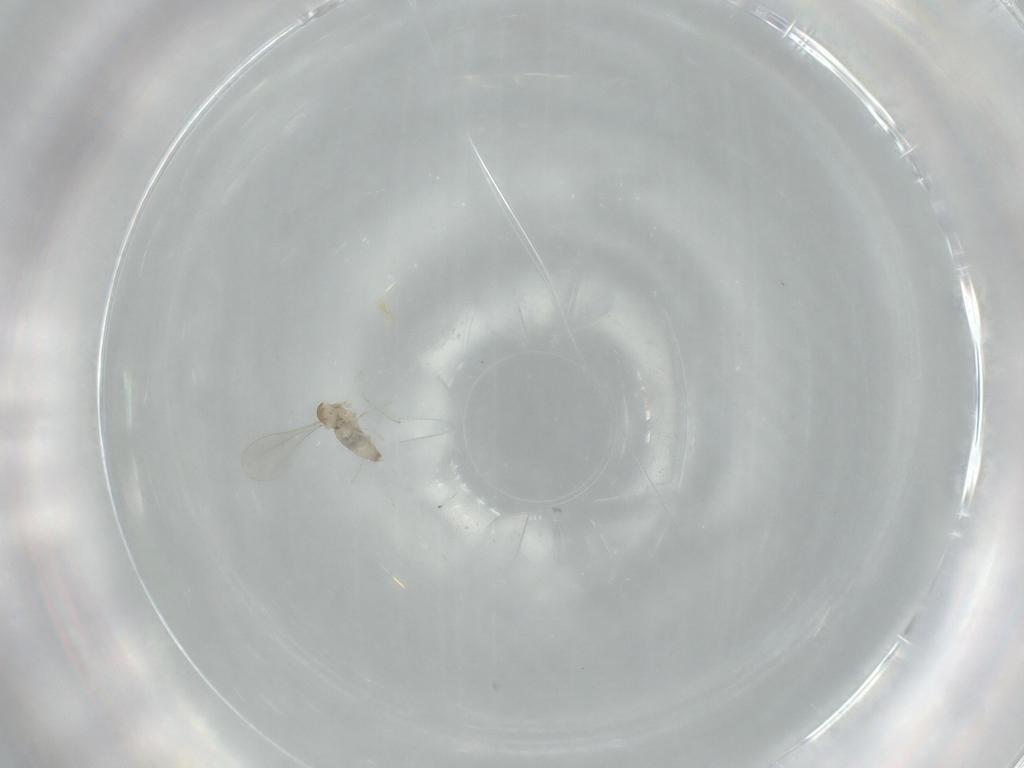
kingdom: Animalia
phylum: Arthropoda
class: Insecta
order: Diptera
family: Cecidomyiidae
